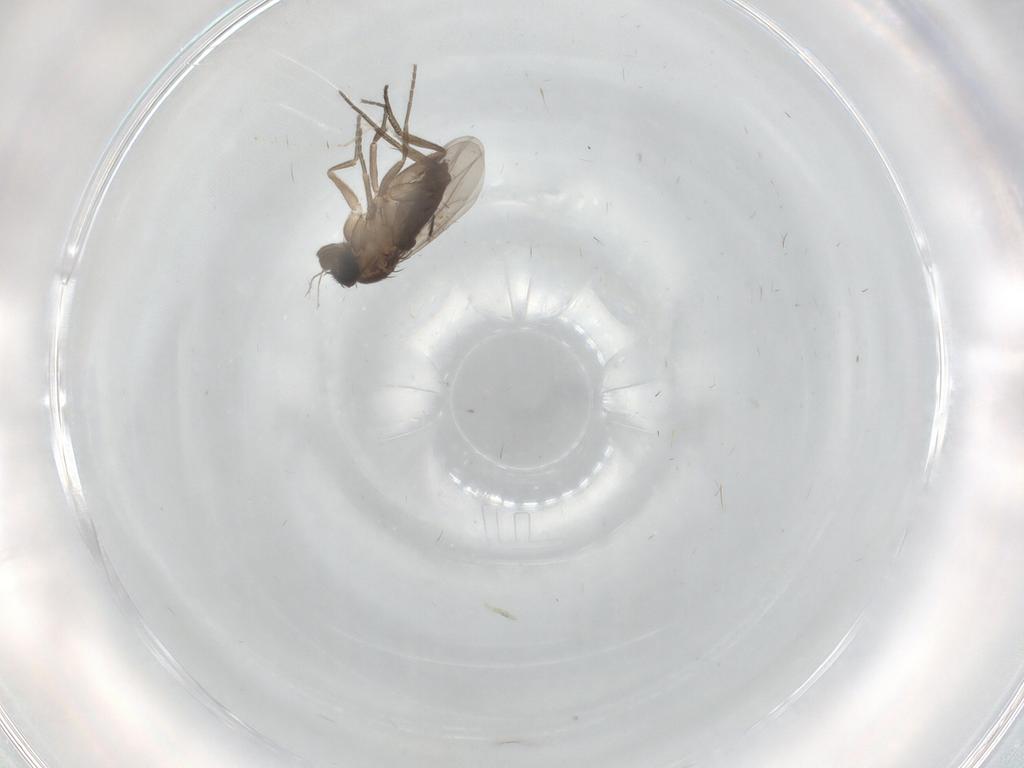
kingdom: Animalia
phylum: Arthropoda
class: Insecta
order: Diptera
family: Phoridae
